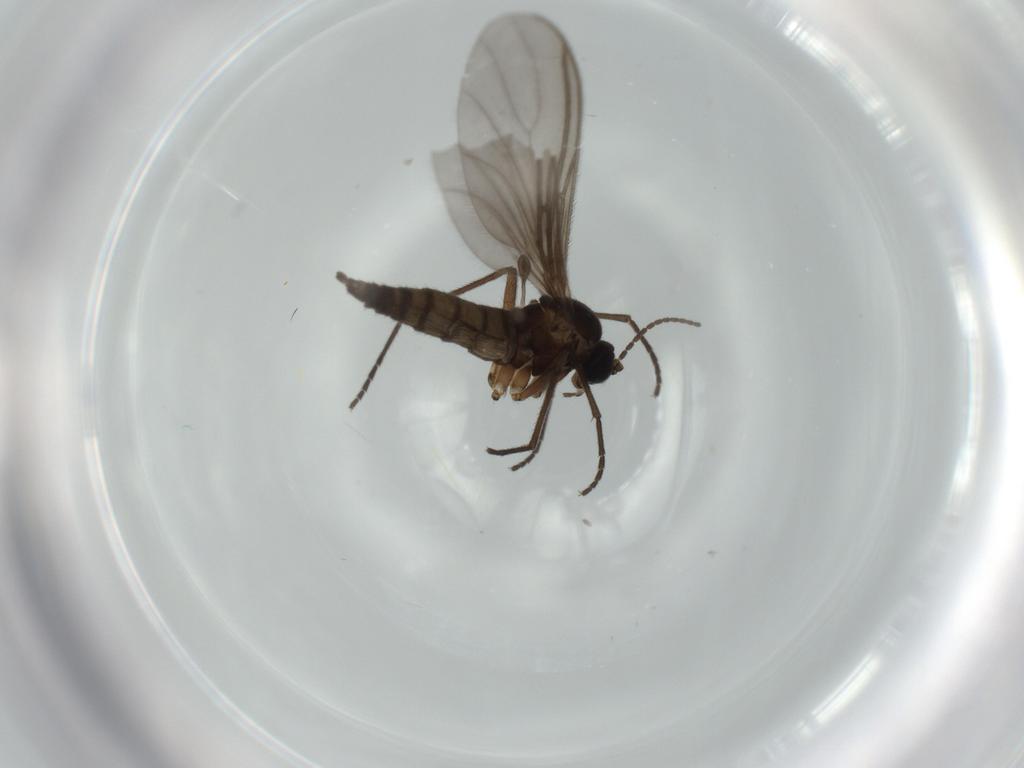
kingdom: Animalia
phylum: Arthropoda
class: Insecta
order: Diptera
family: Sciaridae
